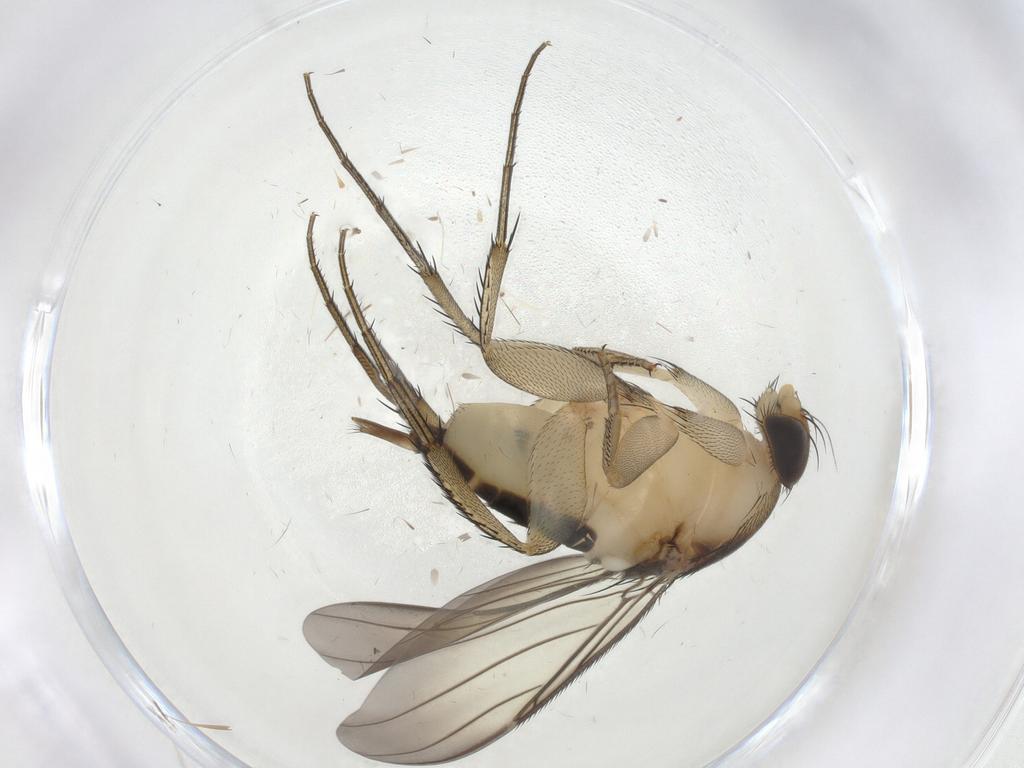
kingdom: Animalia
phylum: Arthropoda
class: Insecta
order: Diptera
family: Phoridae
